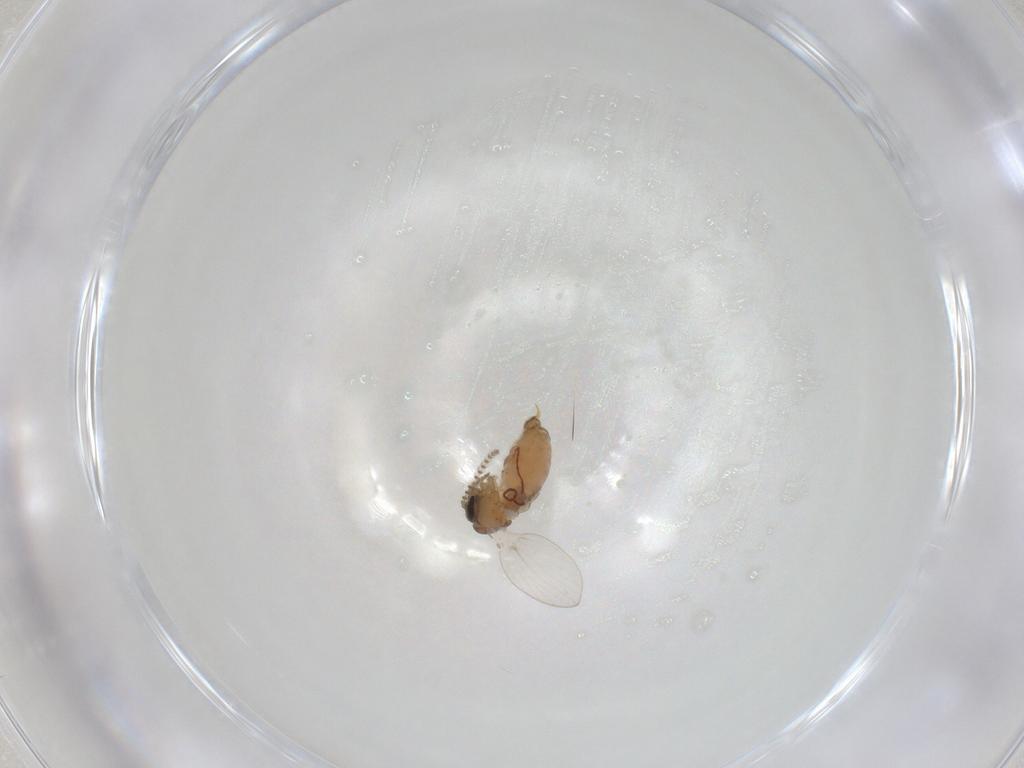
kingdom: Animalia
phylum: Arthropoda
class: Insecta
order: Diptera
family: Psychodidae
